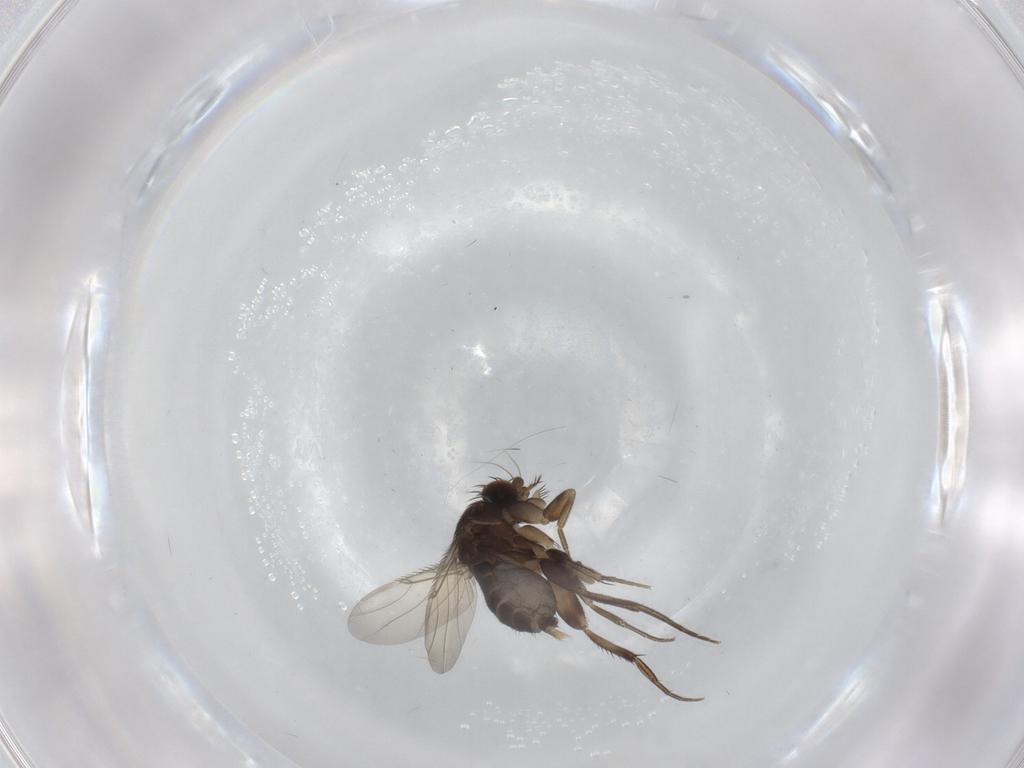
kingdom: Animalia
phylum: Arthropoda
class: Insecta
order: Diptera
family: Phoridae
